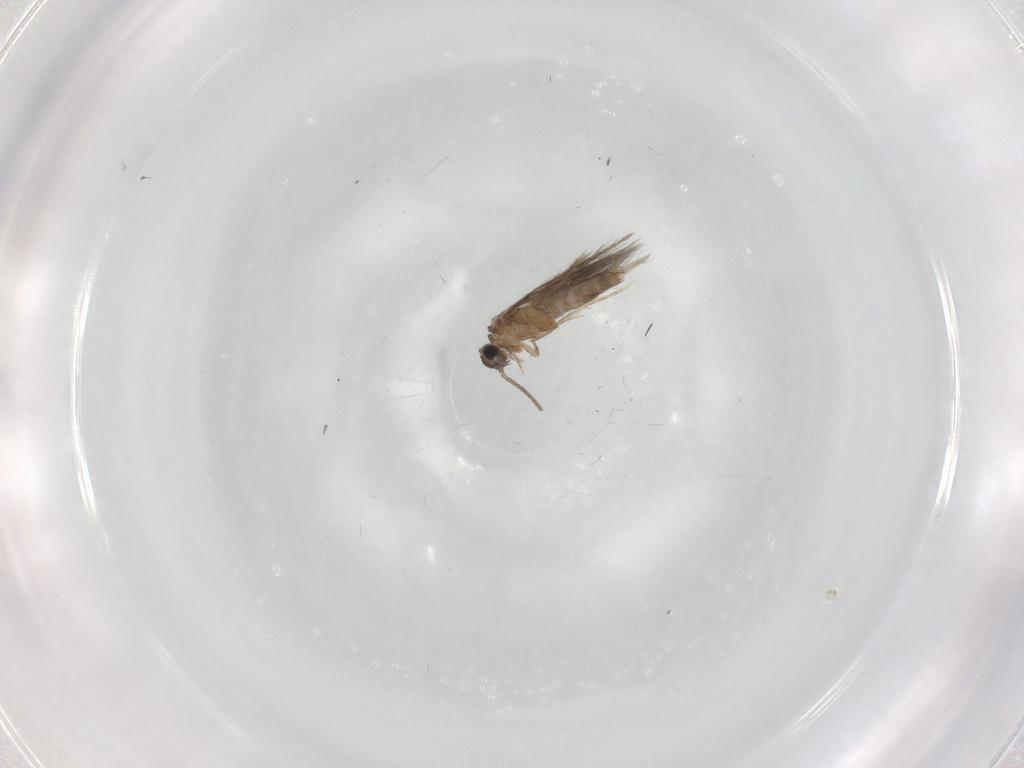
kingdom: Animalia
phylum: Arthropoda
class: Insecta
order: Trichoptera
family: Hydroptilidae
